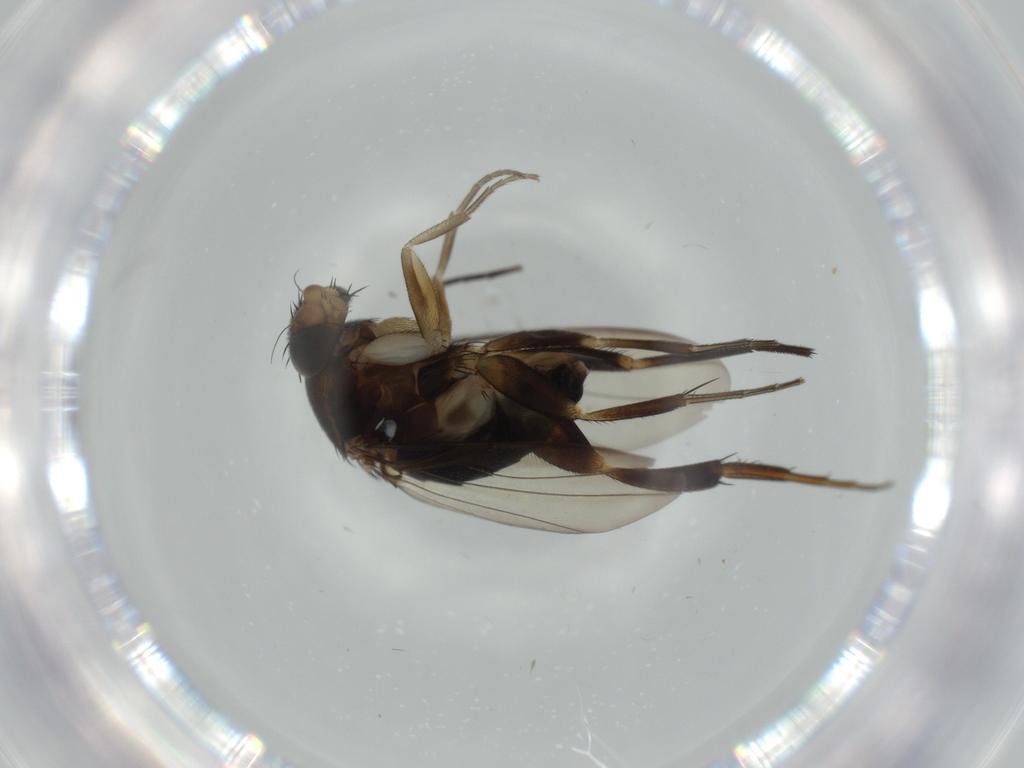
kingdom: Animalia
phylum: Arthropoda
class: Insecta
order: Diptera
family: Phoridae
